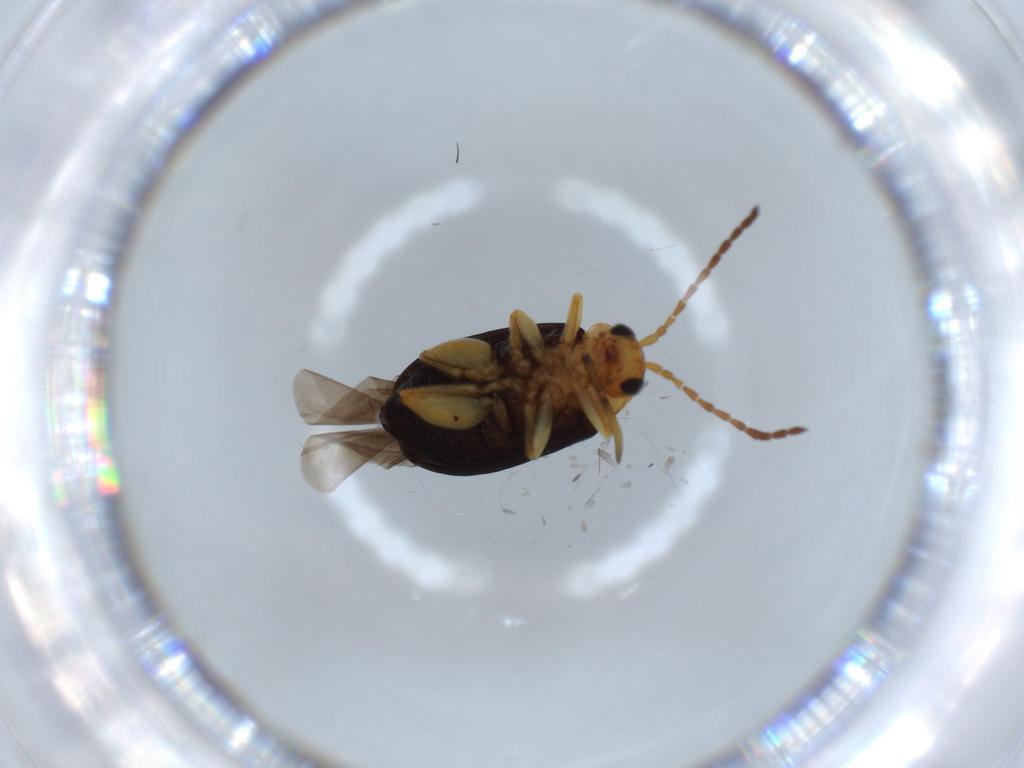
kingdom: Animalia
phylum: Arthropoda
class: Insecta
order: Coleoptera
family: Chrysomelidae
